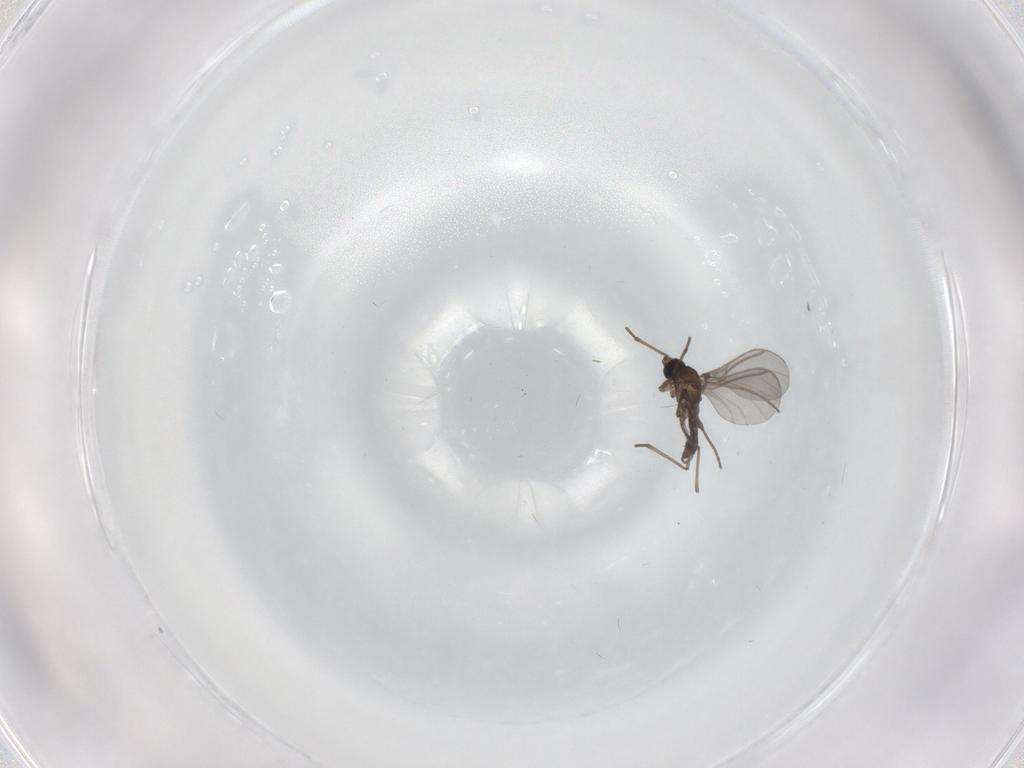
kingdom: Animalia
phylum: Arthropoda
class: Insecta
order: Diptera
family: Sciaridae
